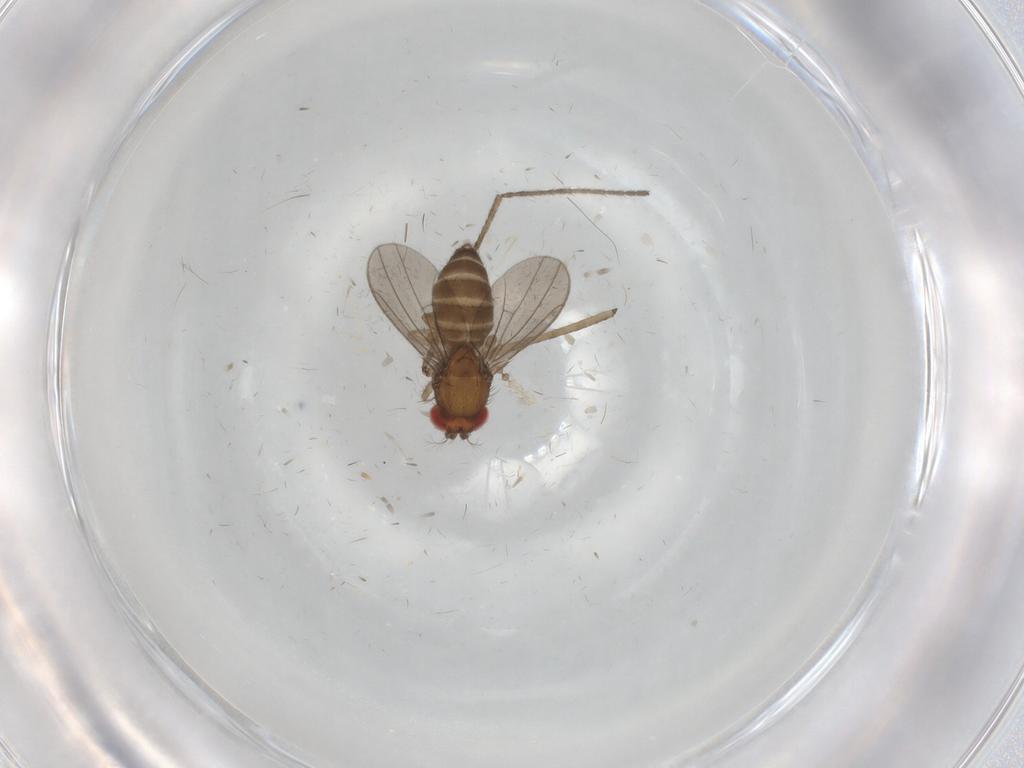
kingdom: Animalia
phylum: Arthropoda
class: Insecta
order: Diptera
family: Drosophilidae
